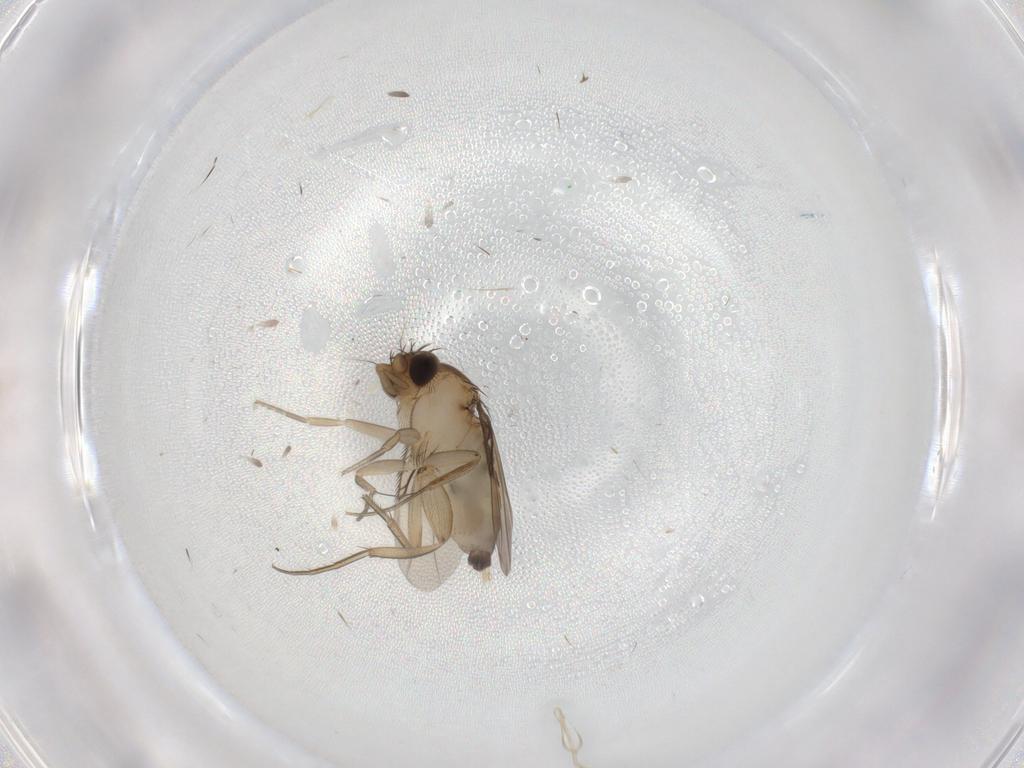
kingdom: Animalia
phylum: Arthropoda
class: Insecta
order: Diptera
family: Phoridae
